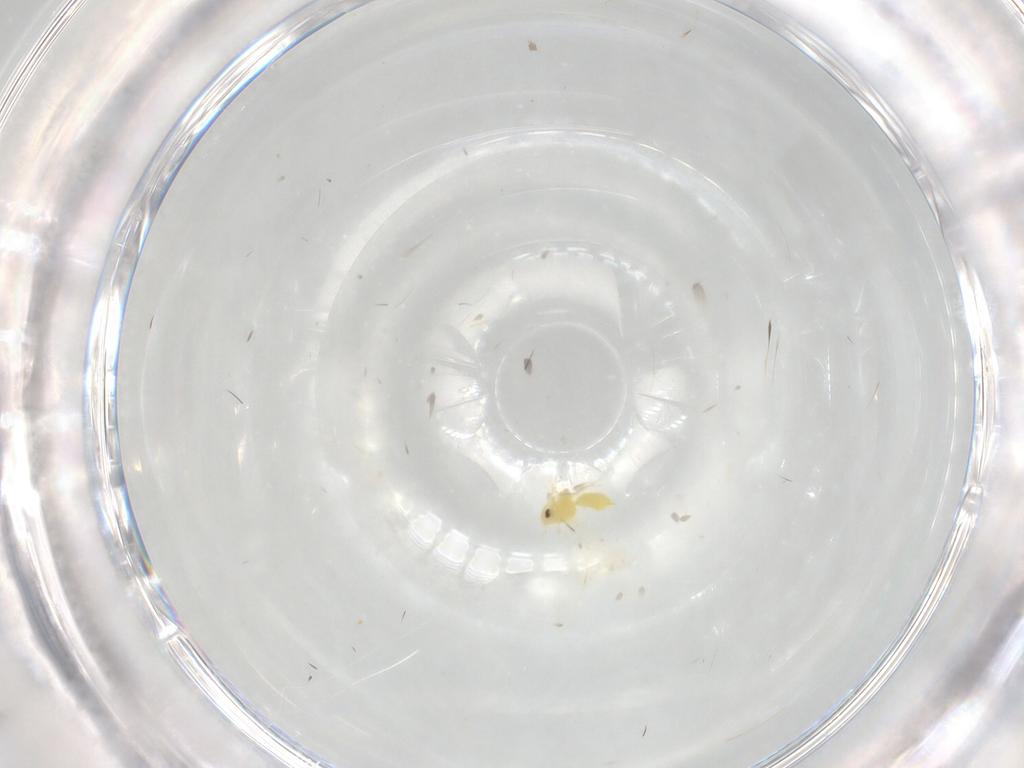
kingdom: Animalia
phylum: Arthropoda
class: Insecta
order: Hemiptera
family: Aleyrodidae
